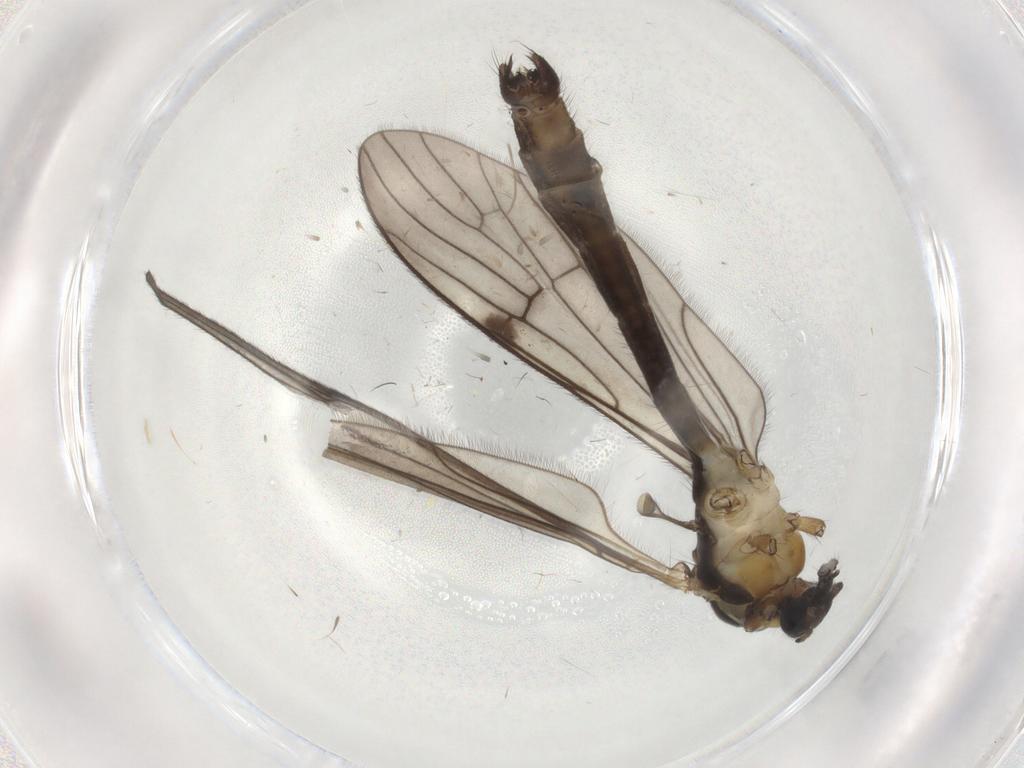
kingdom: Animalia
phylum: Arthropoda
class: Insecta
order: Diptera
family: Limoniidae
